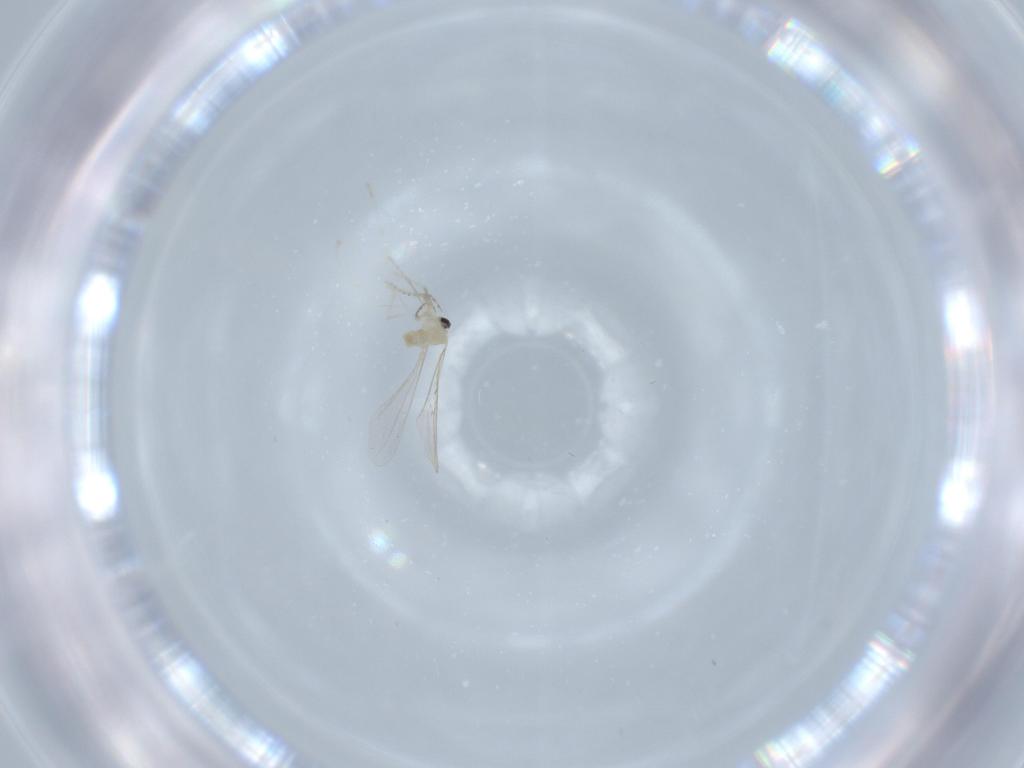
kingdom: Animalia
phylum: Arthropoda
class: Insecta
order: Diptera
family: Cecidomyiidae
